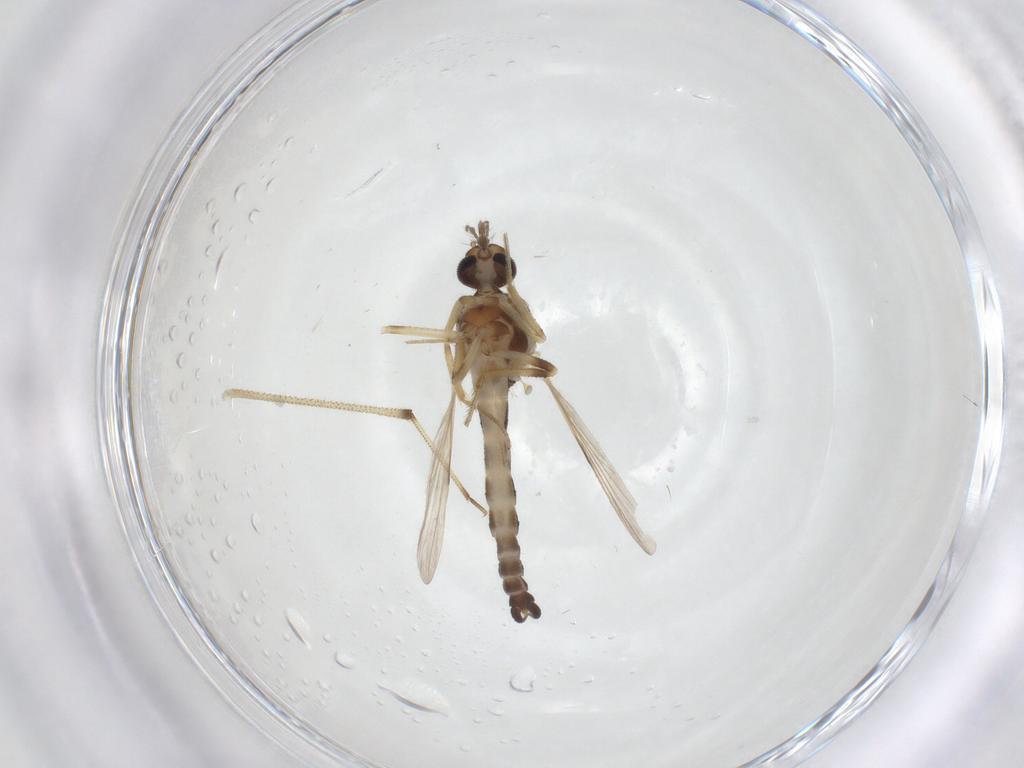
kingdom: Animalia
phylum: Arthropoda
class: Insecta
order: Diptera
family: Ceratopogonidae
